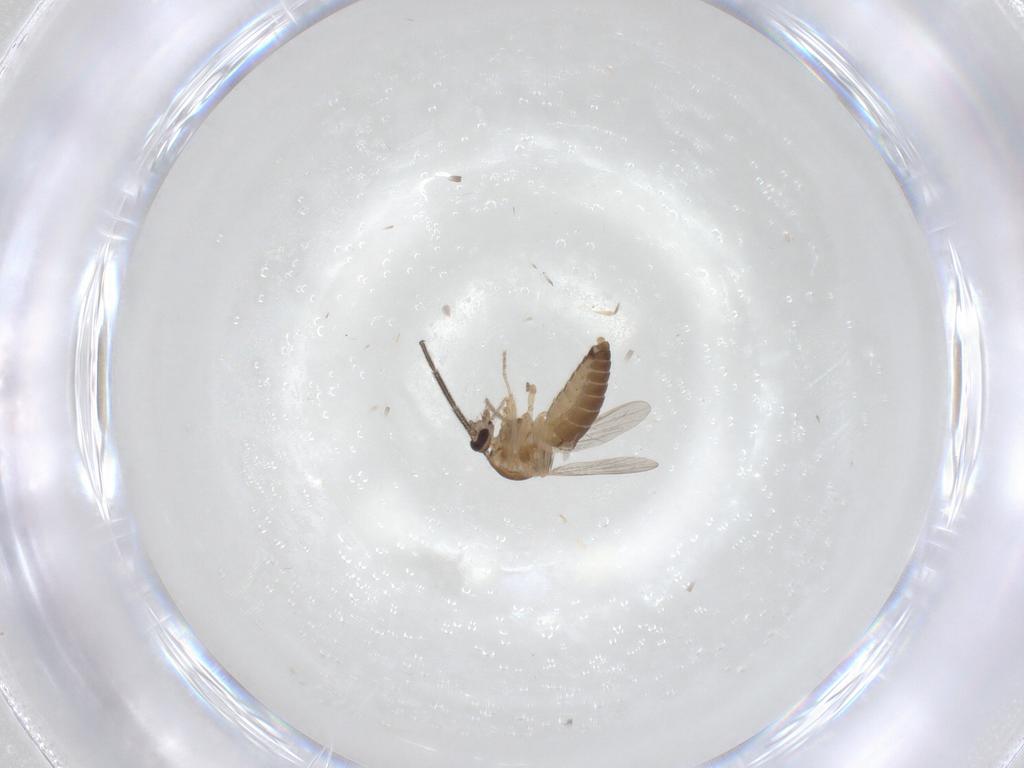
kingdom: Animalia
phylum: Arthropoda
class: Insecta
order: Diptera
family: Ceratopogonidae
